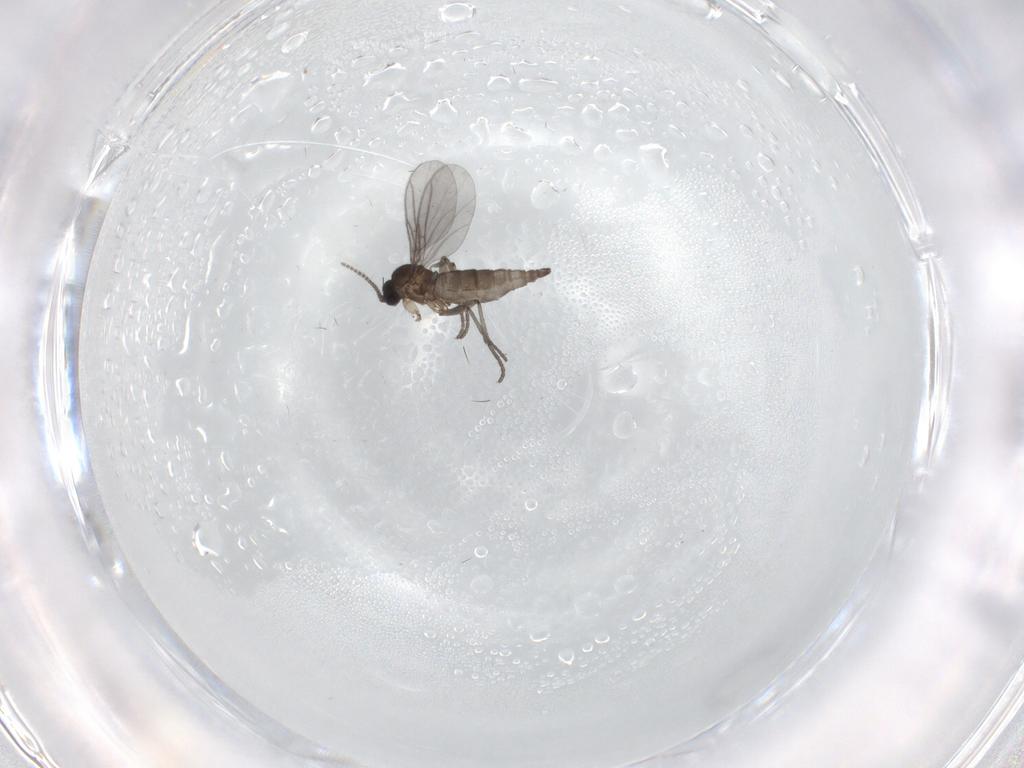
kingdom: Animalia
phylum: Arthropoda
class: Insecta
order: Diptera
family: Sciaridae
